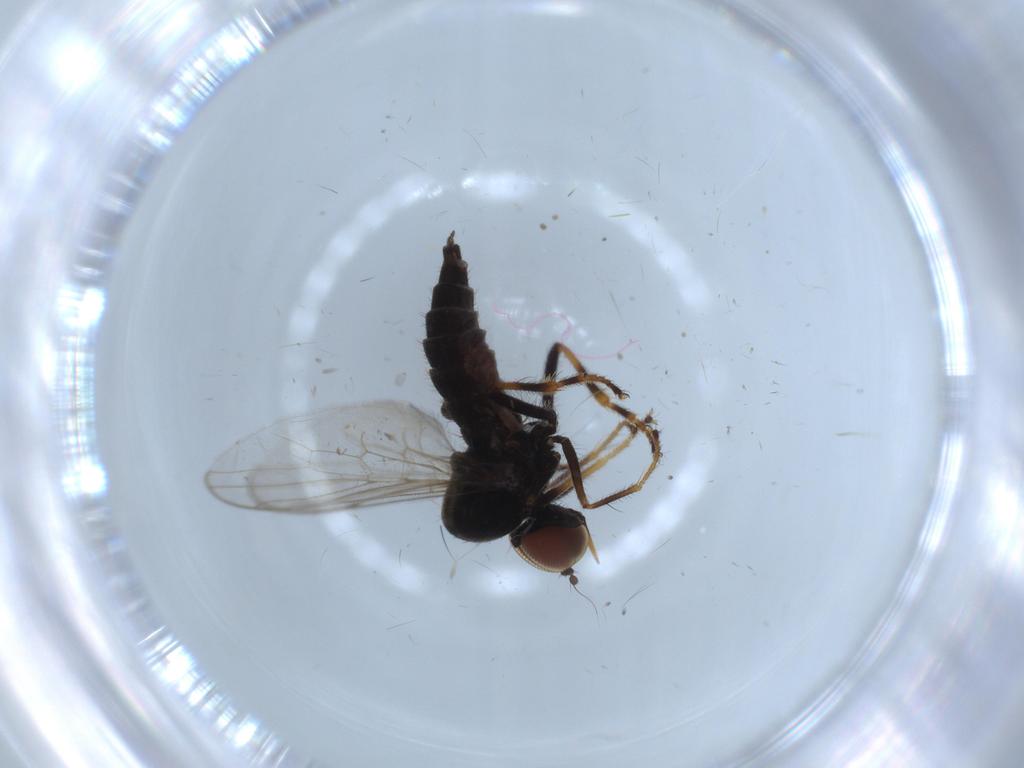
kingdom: Animalia
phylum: Arthropoda
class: Insecta
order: Diptera
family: Hybotidae
